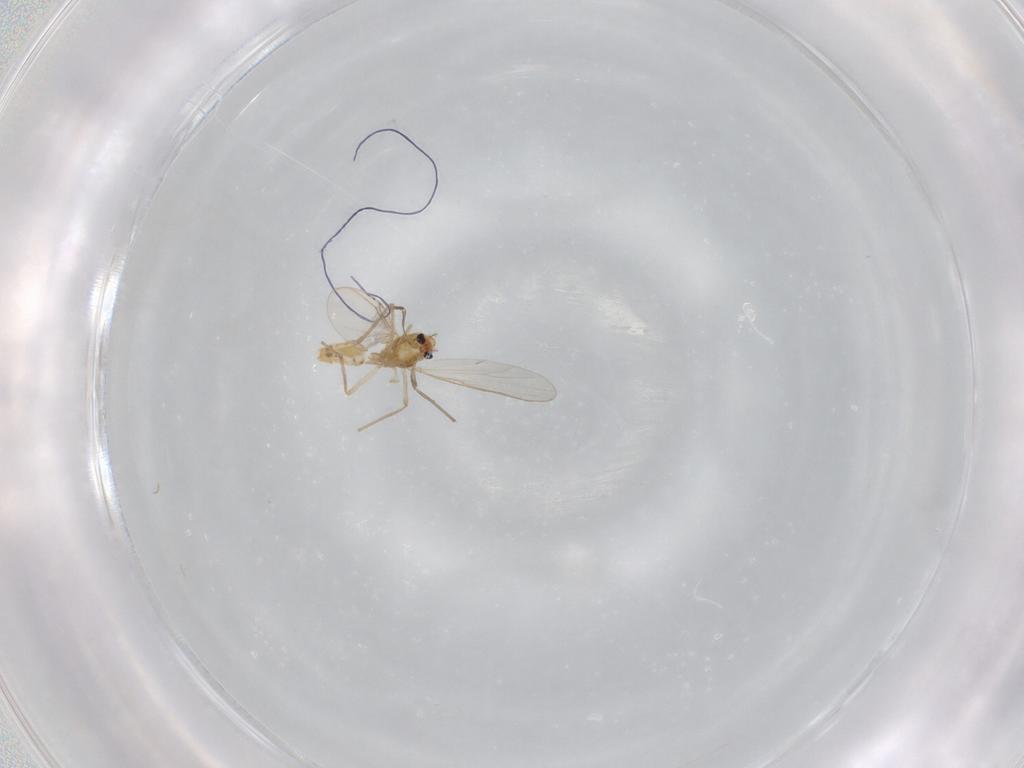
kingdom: Animalia
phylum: Arthropoda
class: Insecta
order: Diptera
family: Chironomidae
